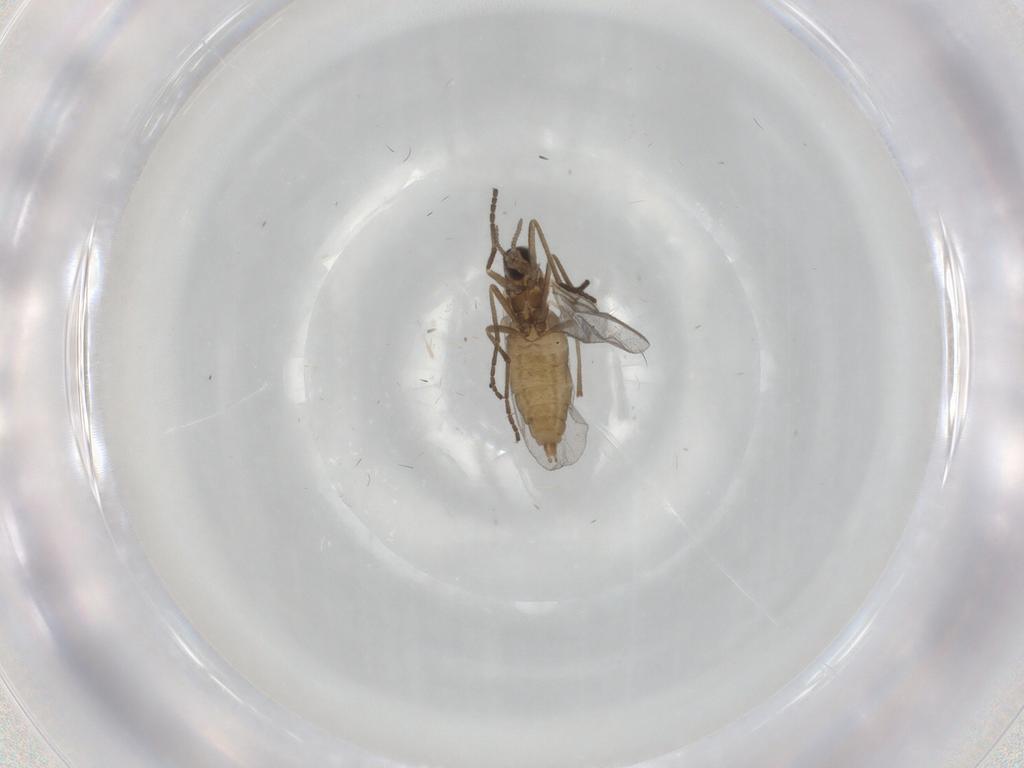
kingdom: Animalia
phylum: Arthropoda
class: Insecta
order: Diptera
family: Cecidomyiidae
